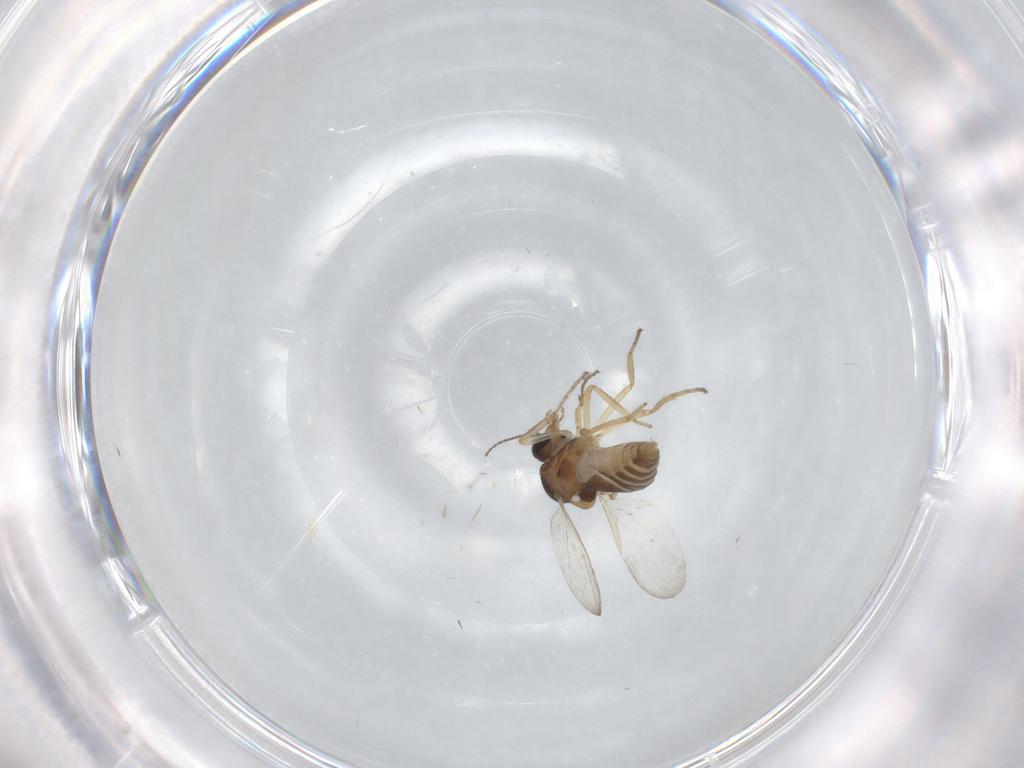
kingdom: Animalia
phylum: Arthropoda
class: Insecta
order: Diptera
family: Ceratopogonidae
